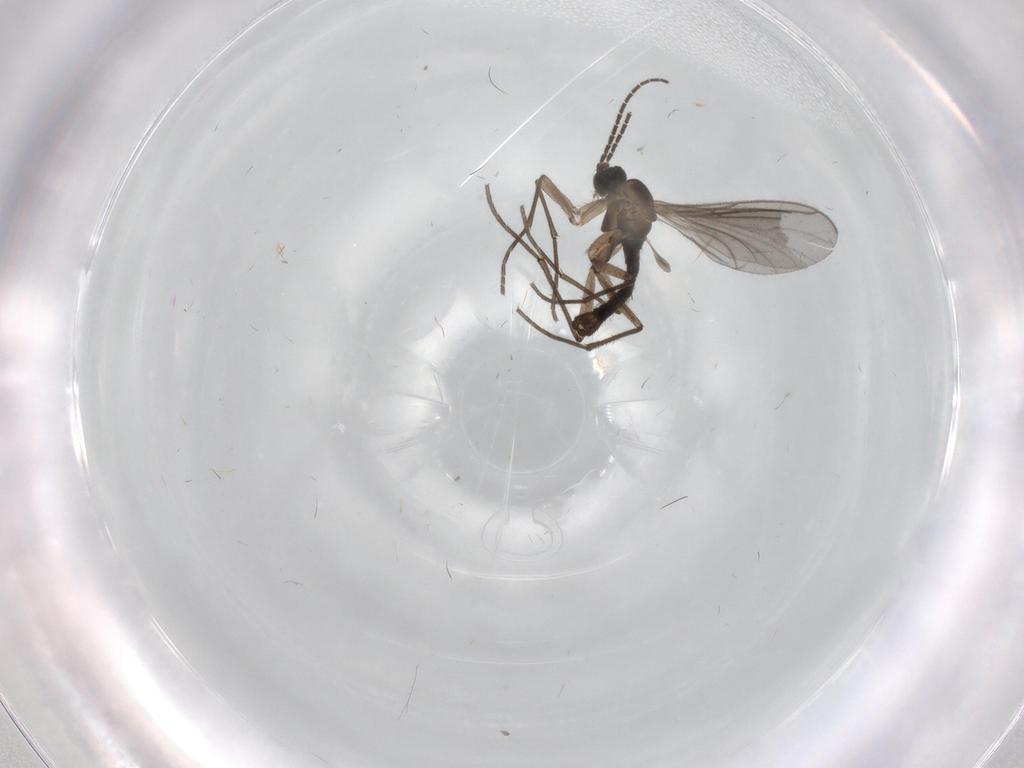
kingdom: Animalia
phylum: Arthropoda
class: Insecta
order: Diptera
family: Sciaridae
